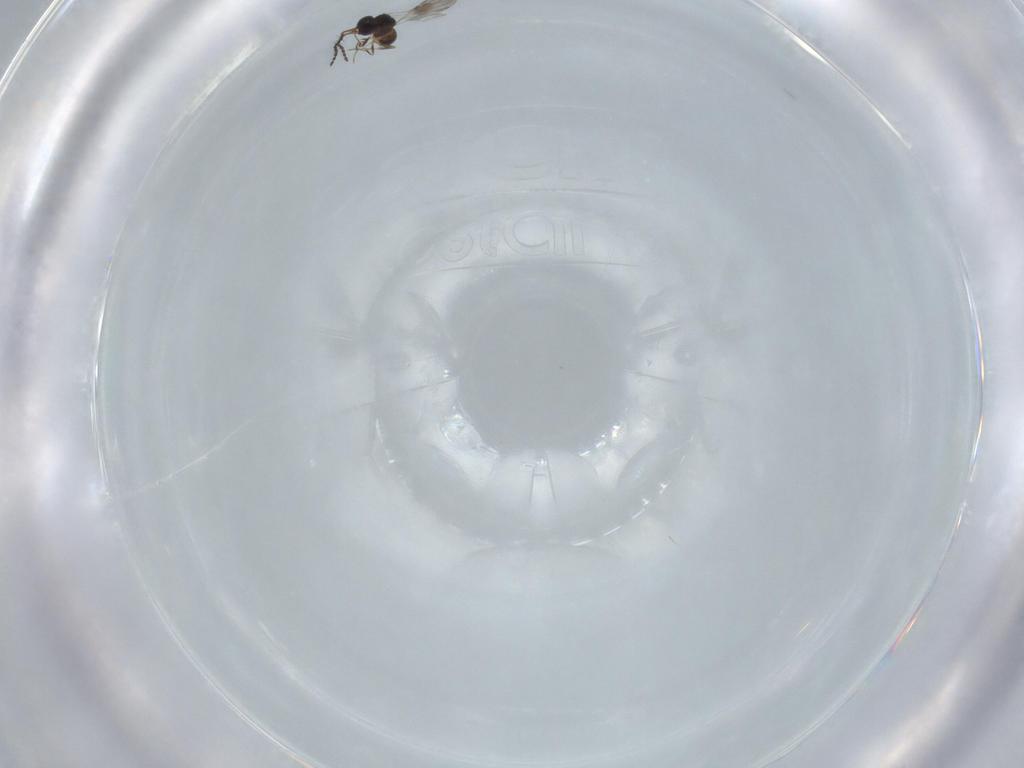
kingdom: Animalia
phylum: Arthropoda
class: Insecta
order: Hymenoptera
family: Ceraphronidae
